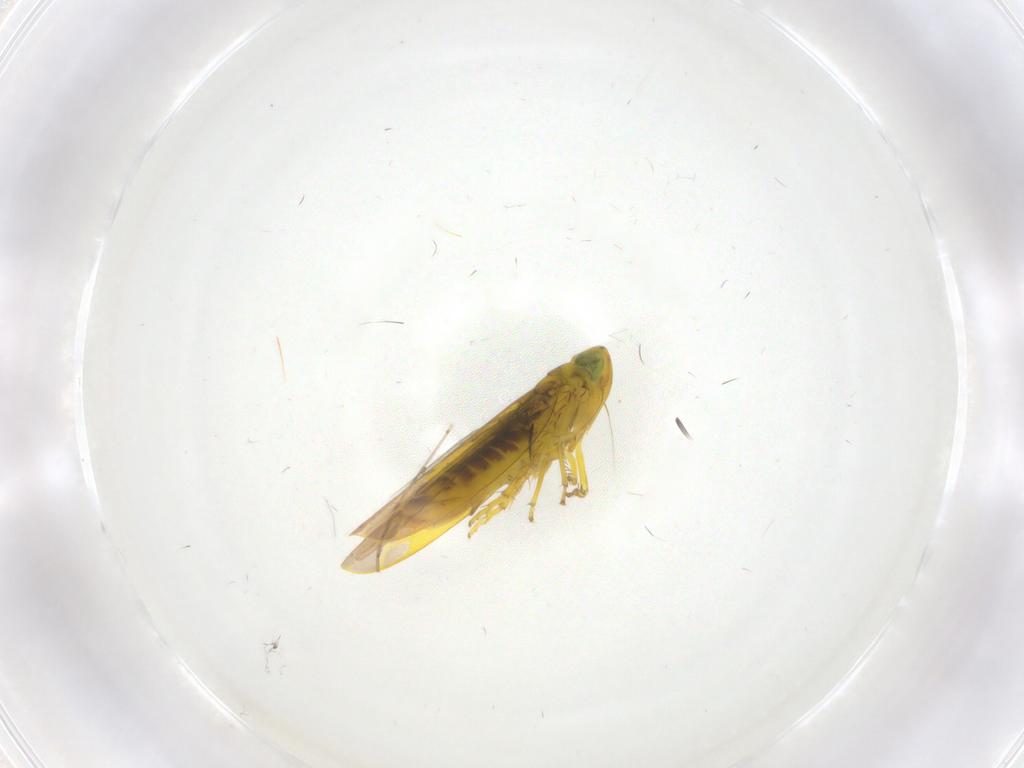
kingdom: Animalia
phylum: Arthropoda
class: Insecta
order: Hemiptera
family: Cicadellidae
